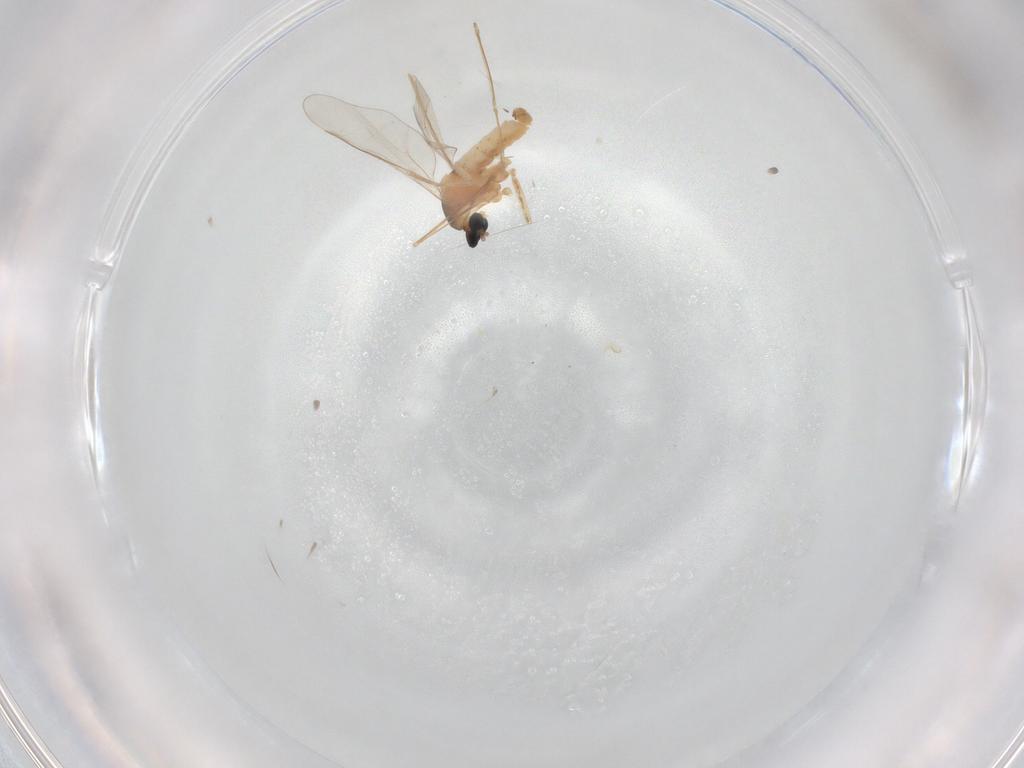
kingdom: Animalia
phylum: Arthropoda
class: Insecta
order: Diptera
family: Cecidomyiidae
